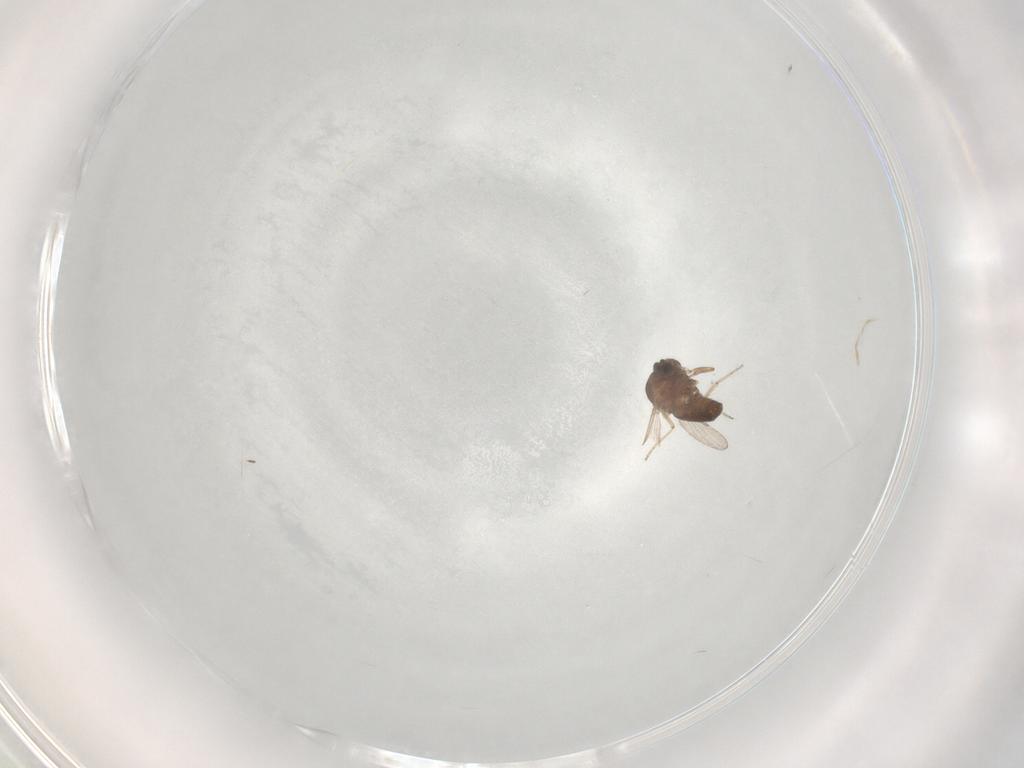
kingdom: Animalia
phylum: Arthropoda
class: Insecta
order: Diptera
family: Ceratopogonidae
